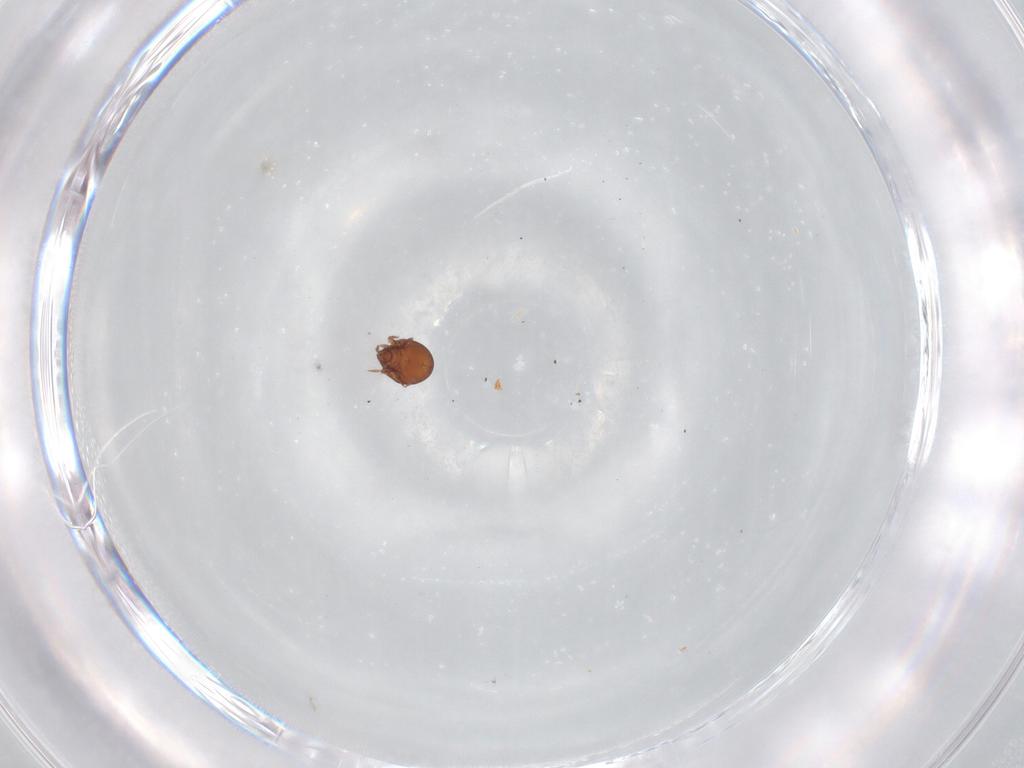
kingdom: Animalia
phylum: Arthropoda
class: Arachnida
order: Sarcoptiformes
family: Haplozetidae
